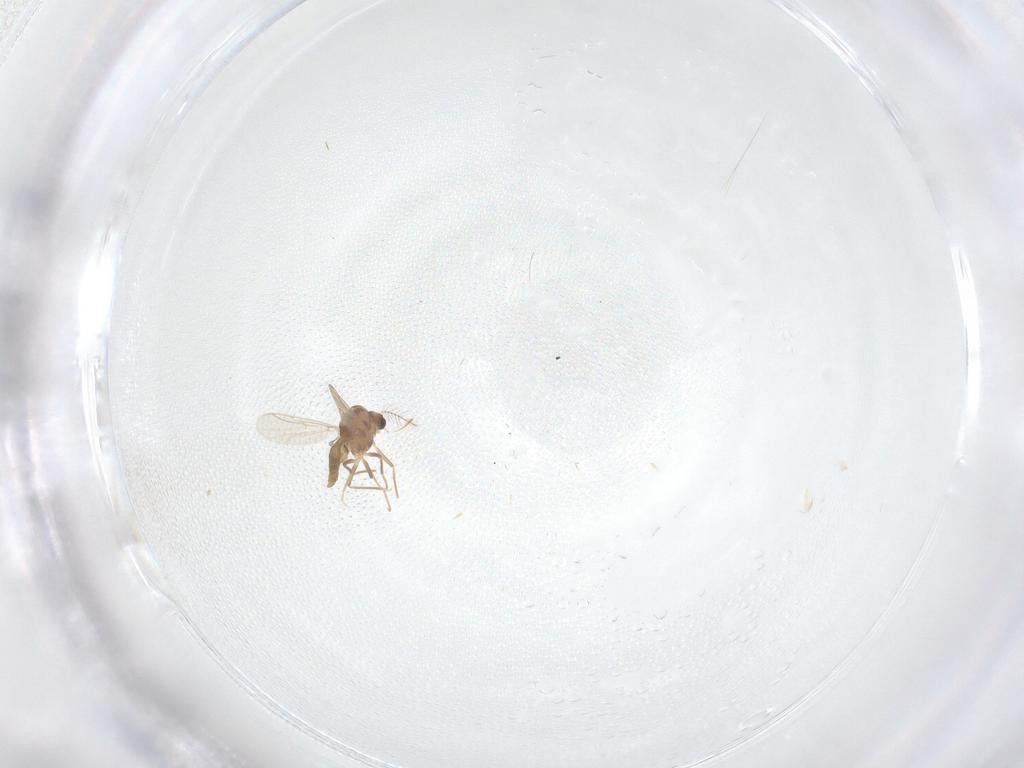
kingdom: Animalia
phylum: Arthropoda
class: Insecta
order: Diptera
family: Chironomidae
